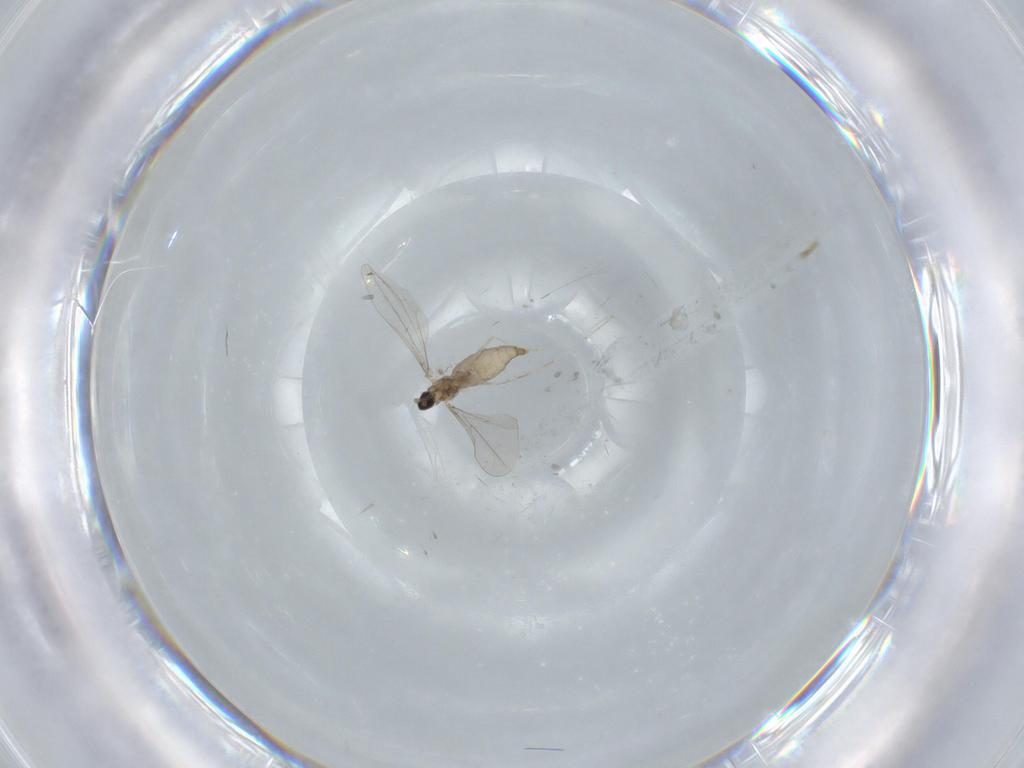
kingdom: Animalia
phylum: Arthropoda
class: Insecta
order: Diptera
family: Cecidomyiidae
